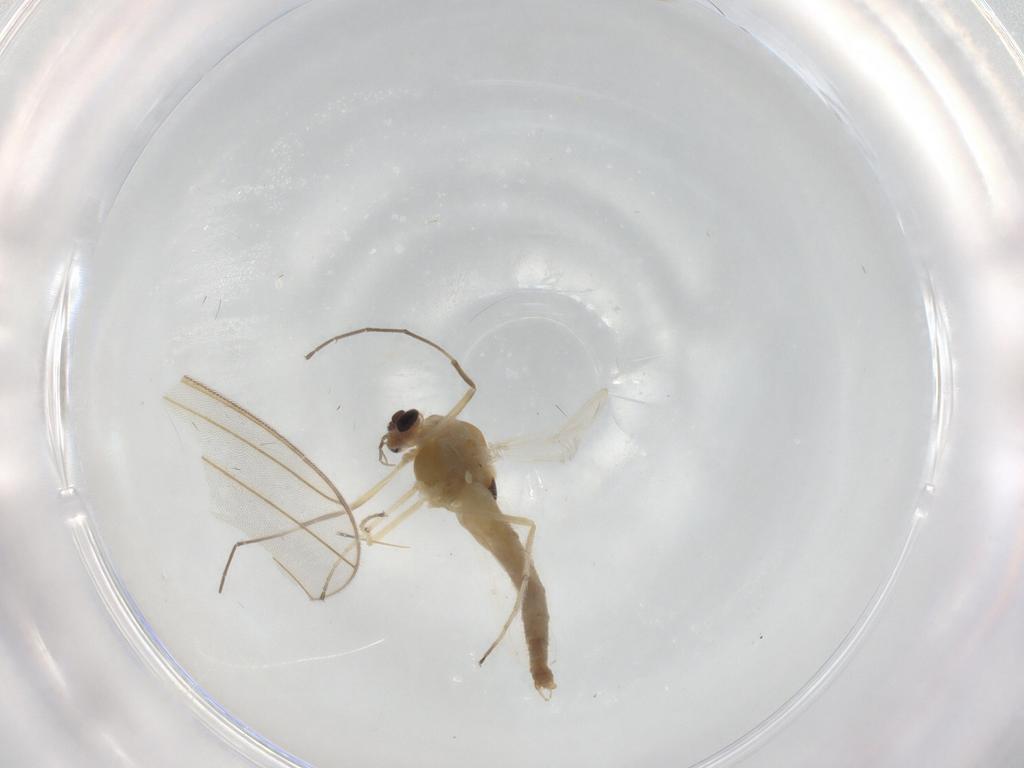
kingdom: Animalia
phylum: Arthropoda
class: Insecta
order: Diptera
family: Chironomidae
